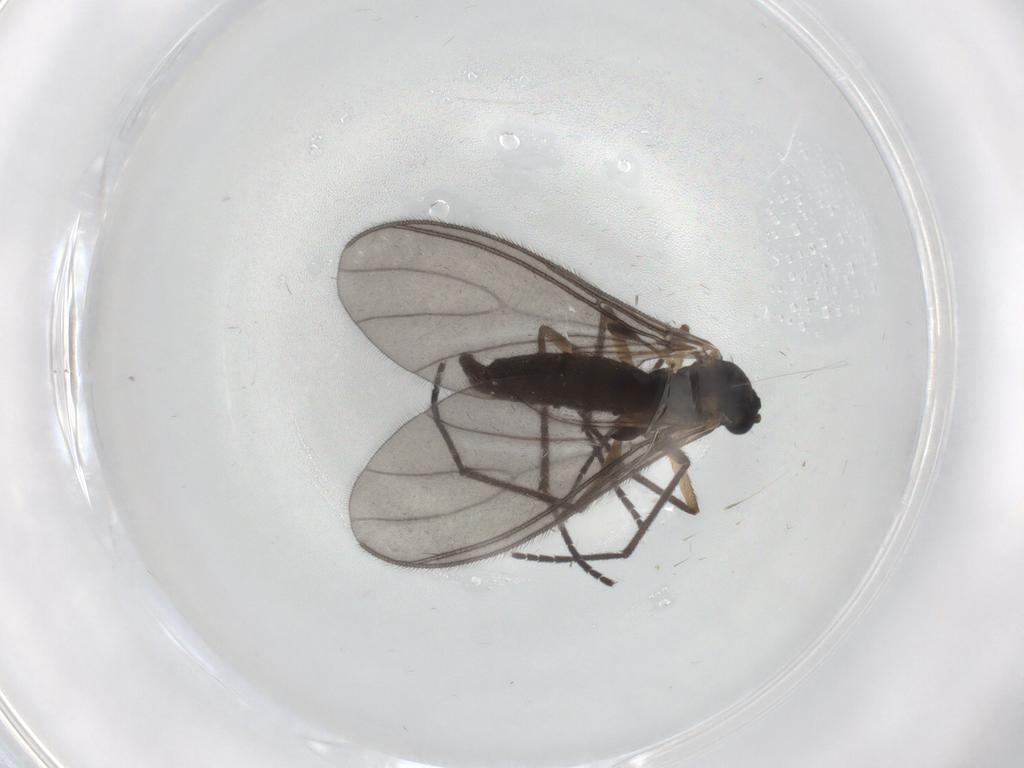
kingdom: Animalia
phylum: Arthropoda
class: Insecta
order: Diptera
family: Sciaridae
